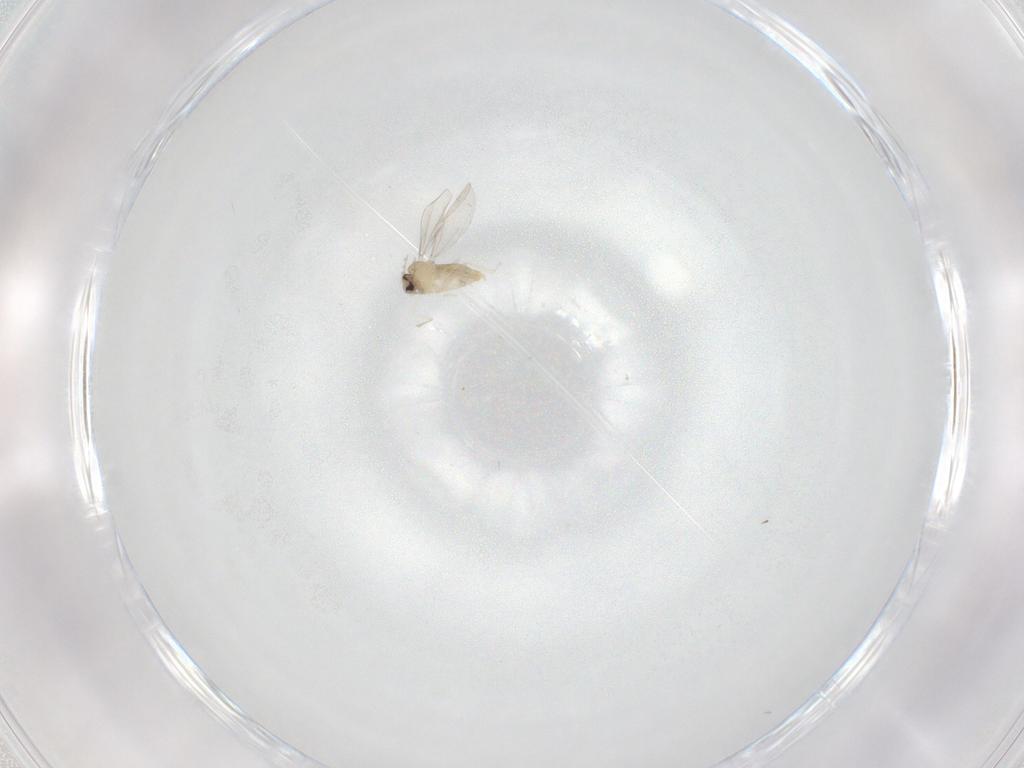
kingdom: Animalia
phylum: Arthropoda
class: Insecta
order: Diptera
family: Cecidomyiidae
